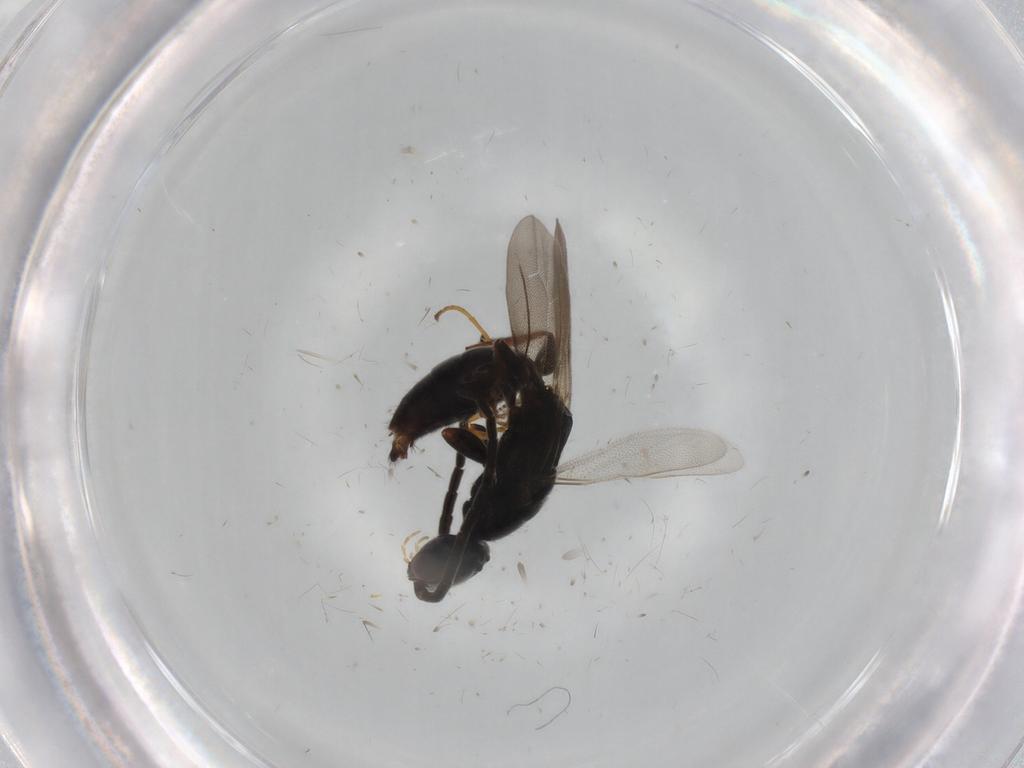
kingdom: Animalia
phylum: Arthropoda
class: Insecta
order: Hymenoptera
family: Bethylidae
